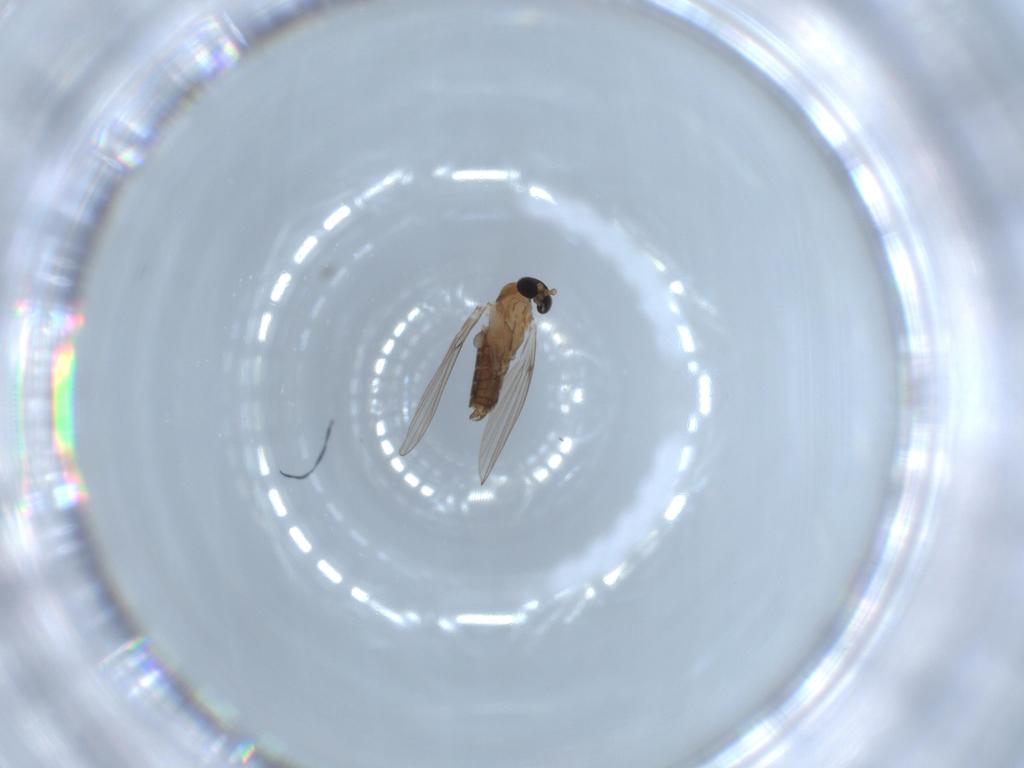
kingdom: Animalia
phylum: Arthropoda
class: Insecta
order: Diptera
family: Psychodidae
